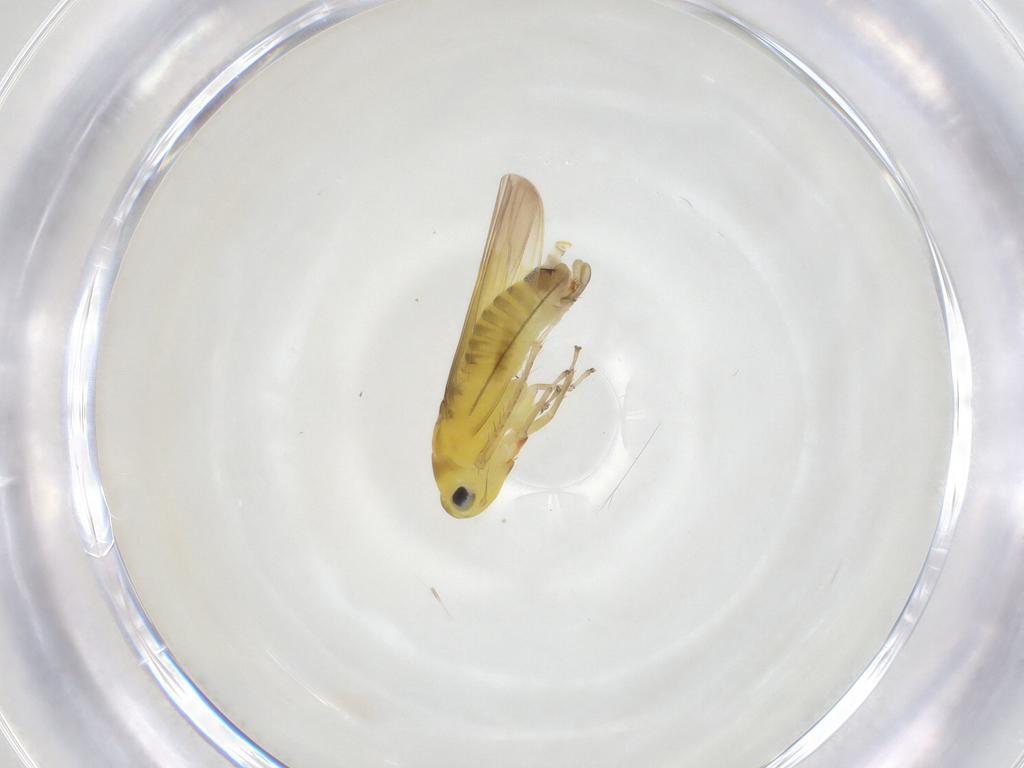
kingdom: Animalia
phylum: Arthropoda
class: Insecta
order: Hemiptera
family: Cicadellidae
